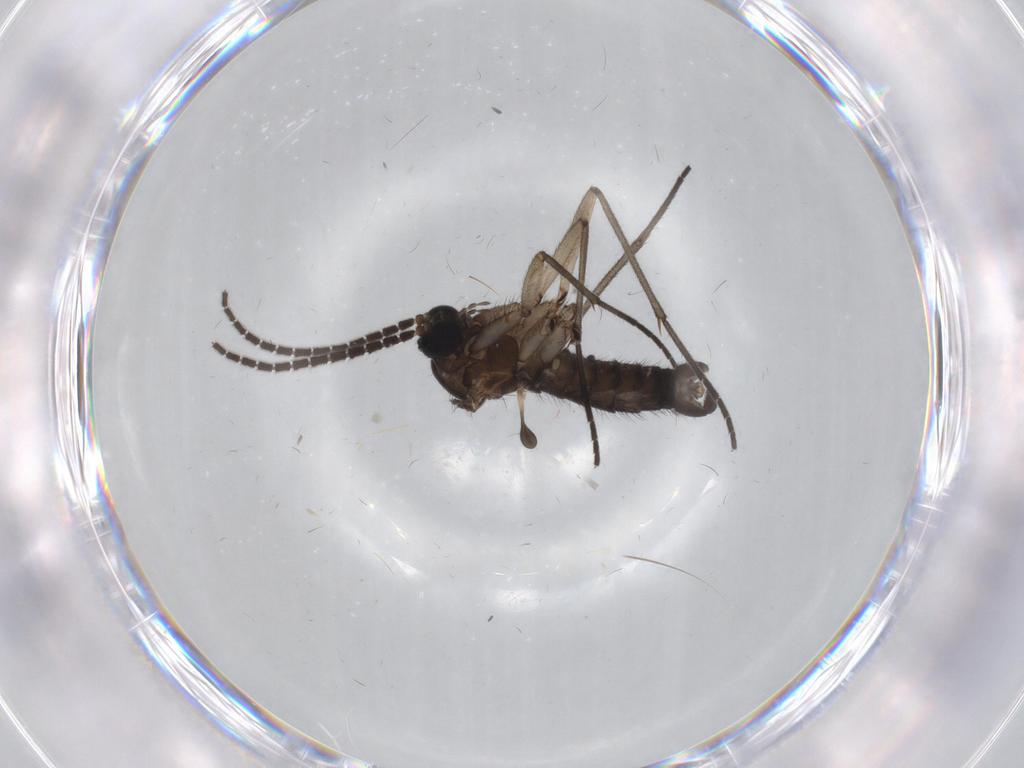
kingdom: Animalia
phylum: Arthropoda
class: Insecta
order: Diptera
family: Sciaridae
